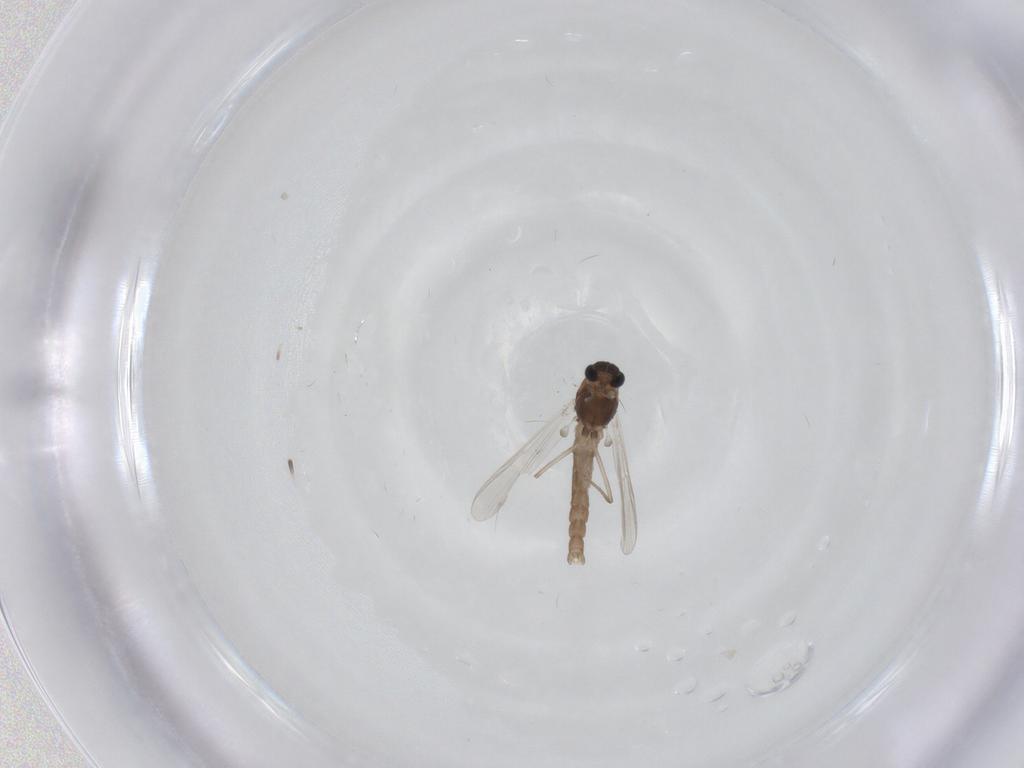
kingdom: Animalia
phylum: Arthropoda
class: Insecta
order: Diptera
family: Chironomidae
